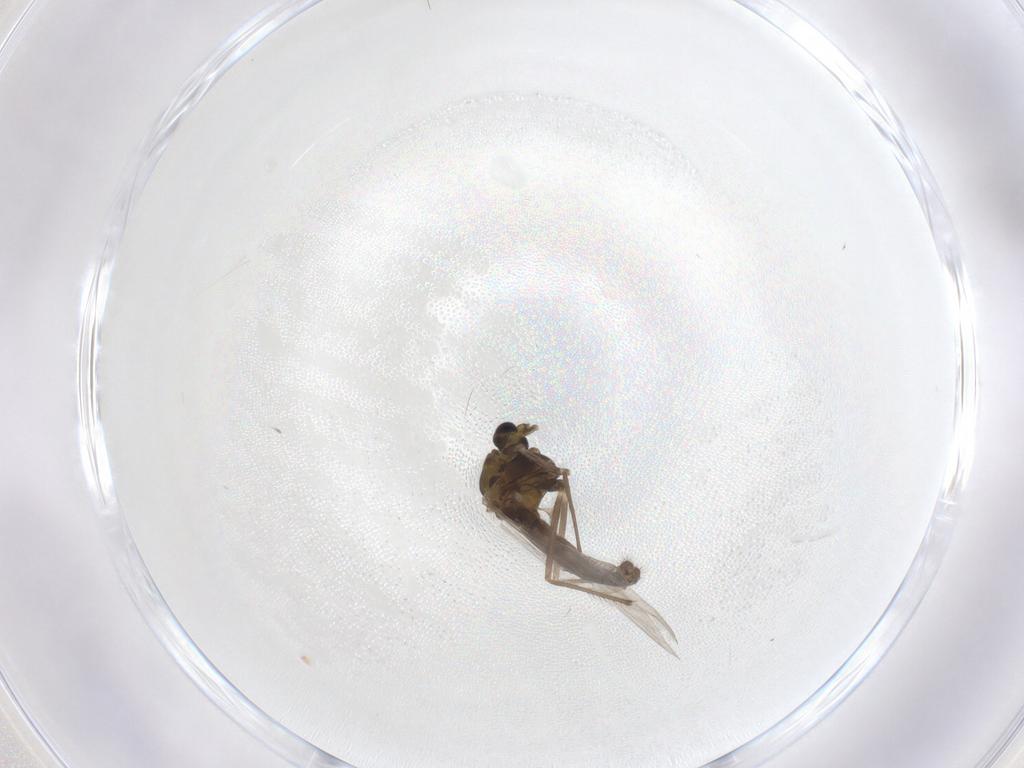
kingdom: Animalia
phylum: Arthropoda
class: Insecta
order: Diptera
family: Chironomidae
